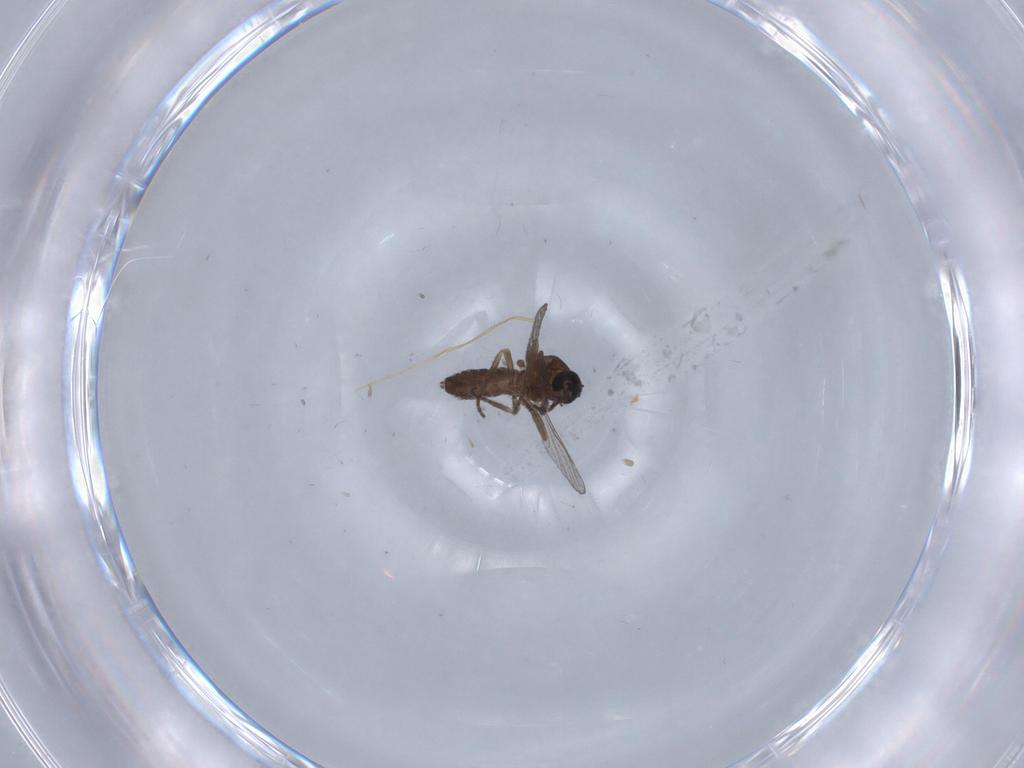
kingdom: Animalia
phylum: Arthropoda
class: Insecta
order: Diptera
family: Psychodidae
